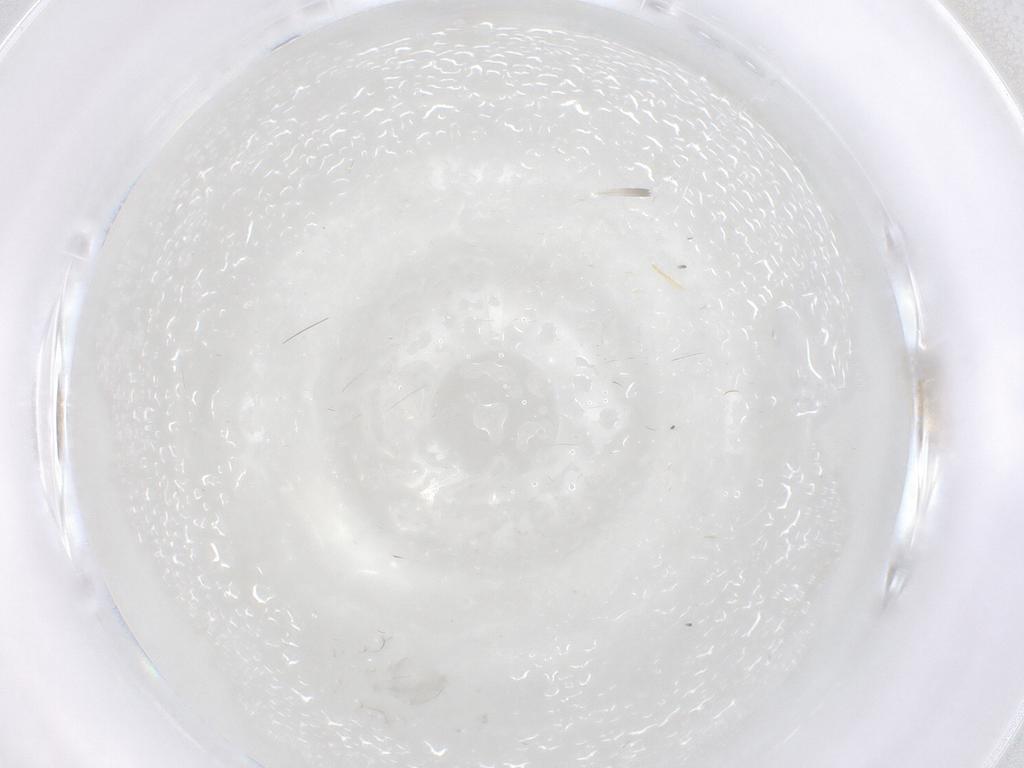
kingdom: Animalia
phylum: Arthropoda
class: Insecta
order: Diptera
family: Cecidomyiidae
